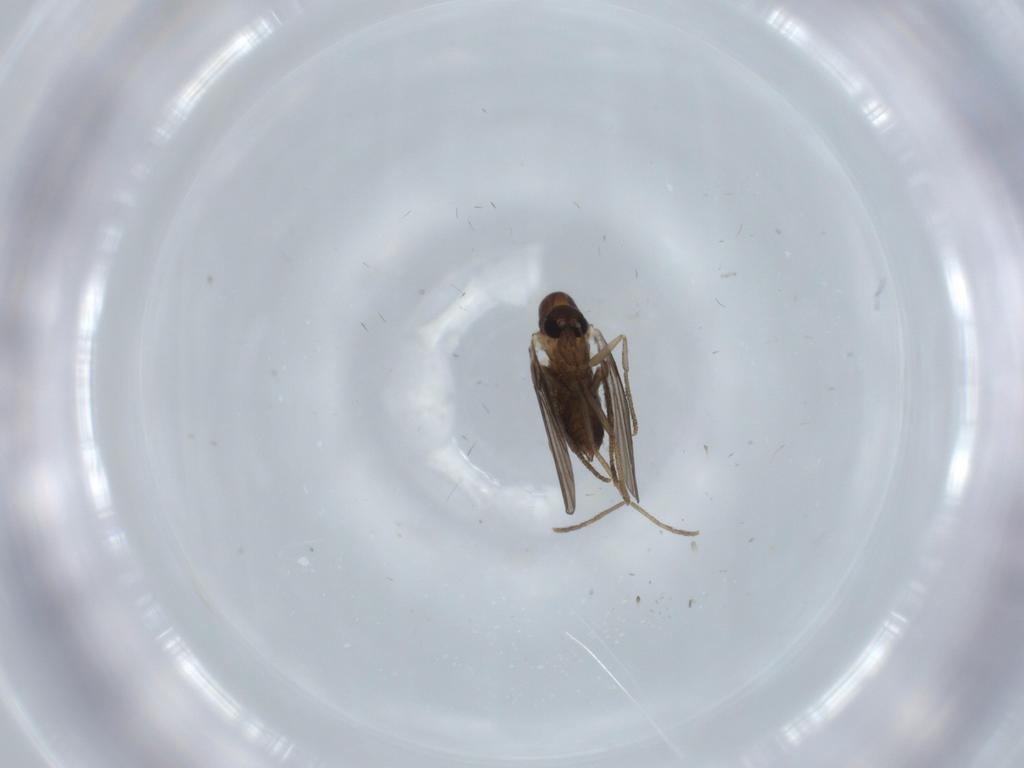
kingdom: Animalia
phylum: Arthropoda
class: Insecta
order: Diptera
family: Psychodidae
